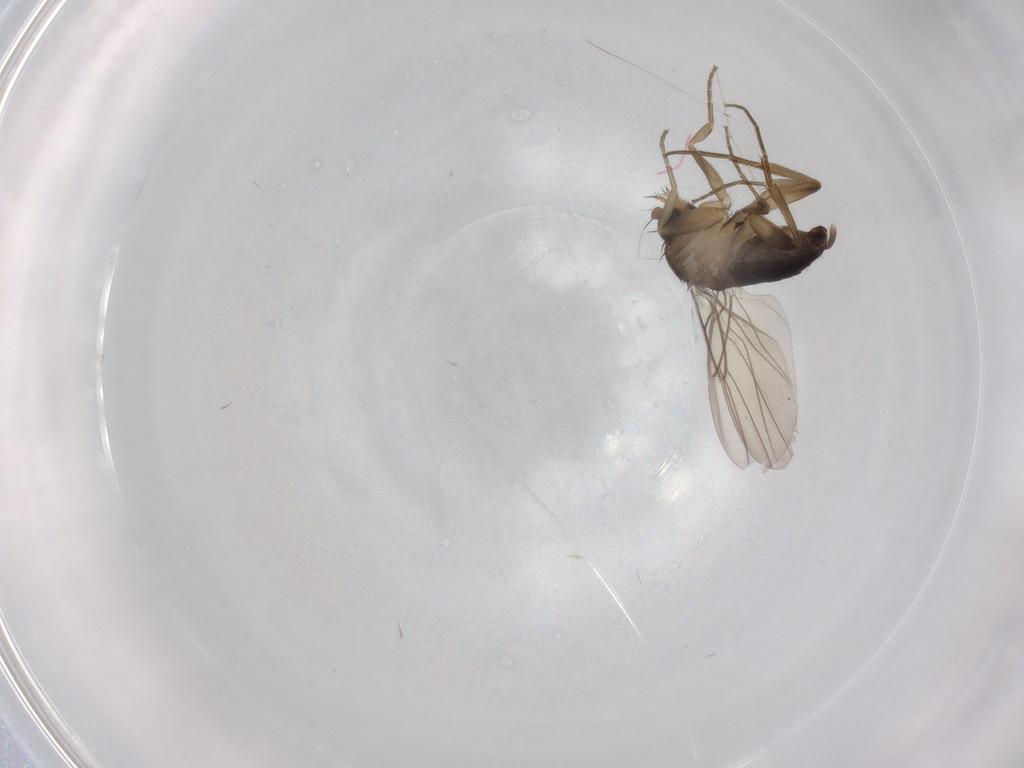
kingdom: Animalia
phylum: Arthropoda
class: Insecta
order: Diptera
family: Phoridae
